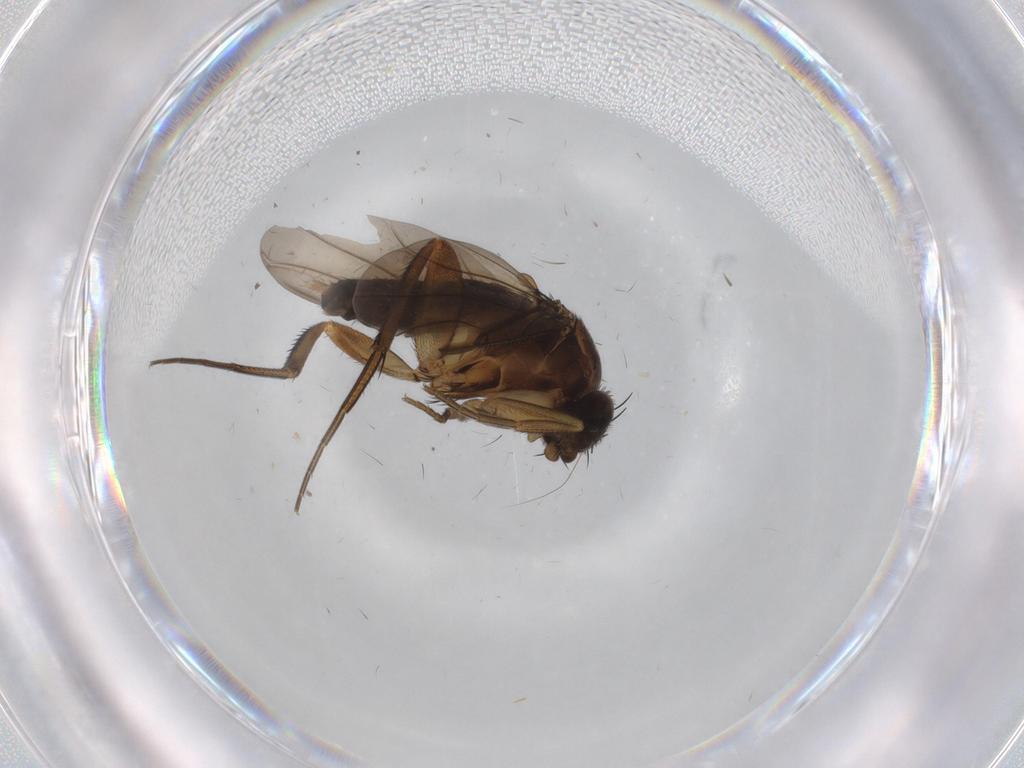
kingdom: Animalia
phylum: Arthropoda
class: Insecta
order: Diptera
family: Phoridae
